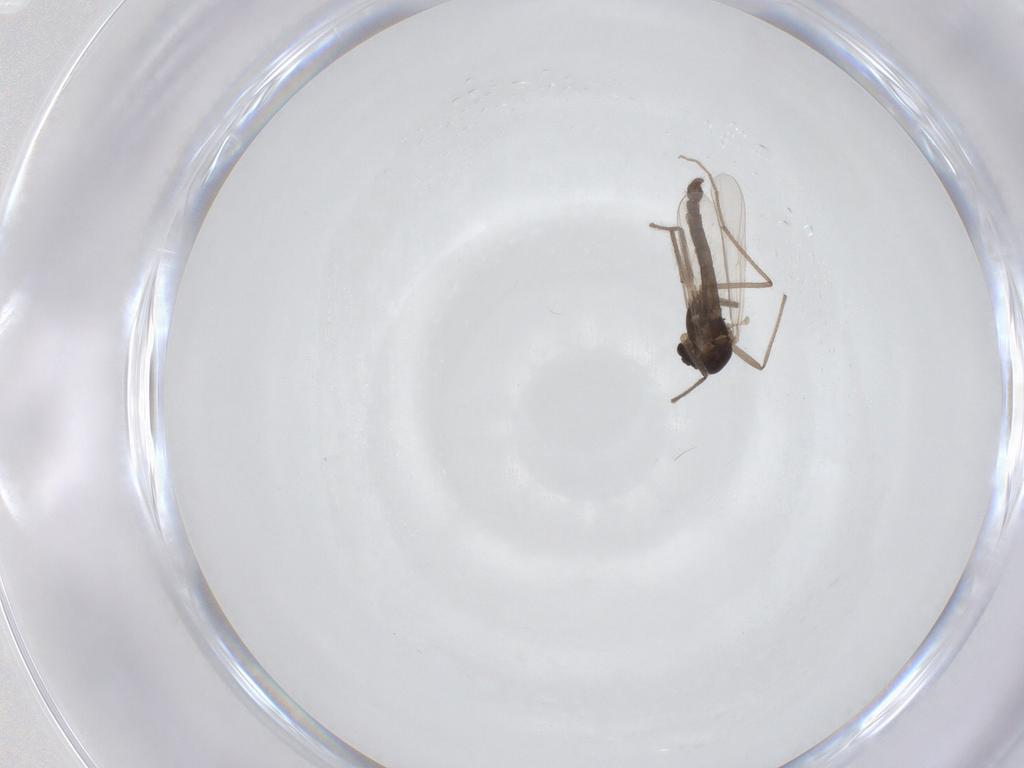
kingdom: Animalia
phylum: Arthropoda
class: Insecta
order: Diptera
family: Chironomidae
